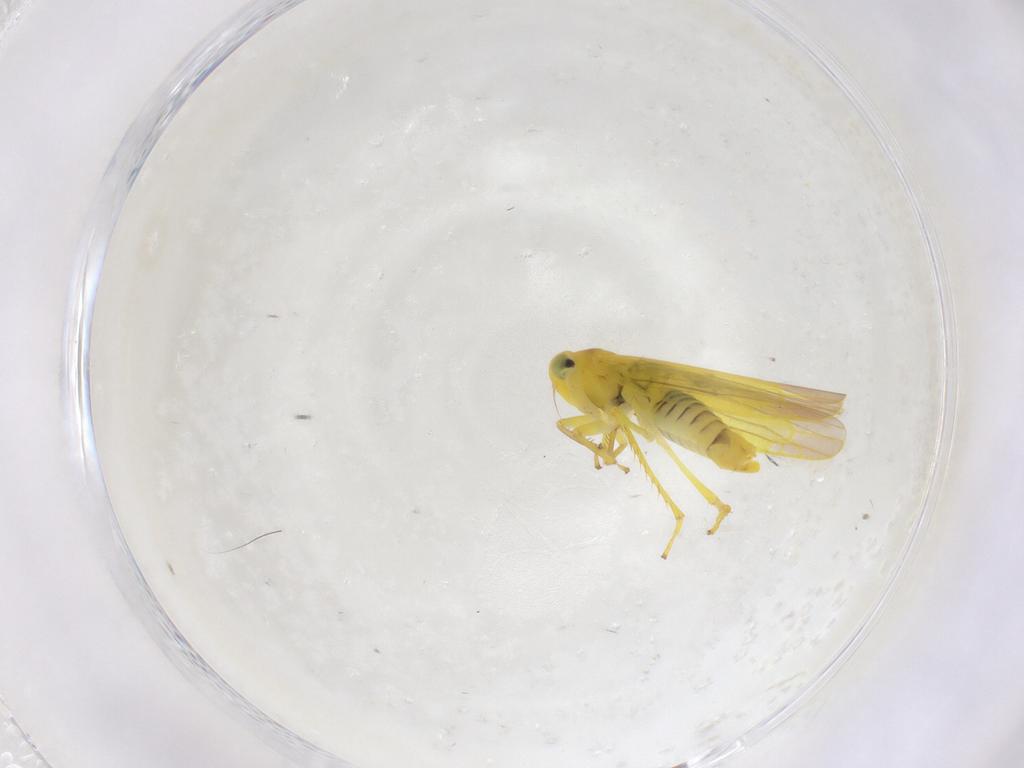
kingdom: Animalia
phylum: Arthropoda
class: Insecta
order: Hemiptera
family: Cicadellidae
